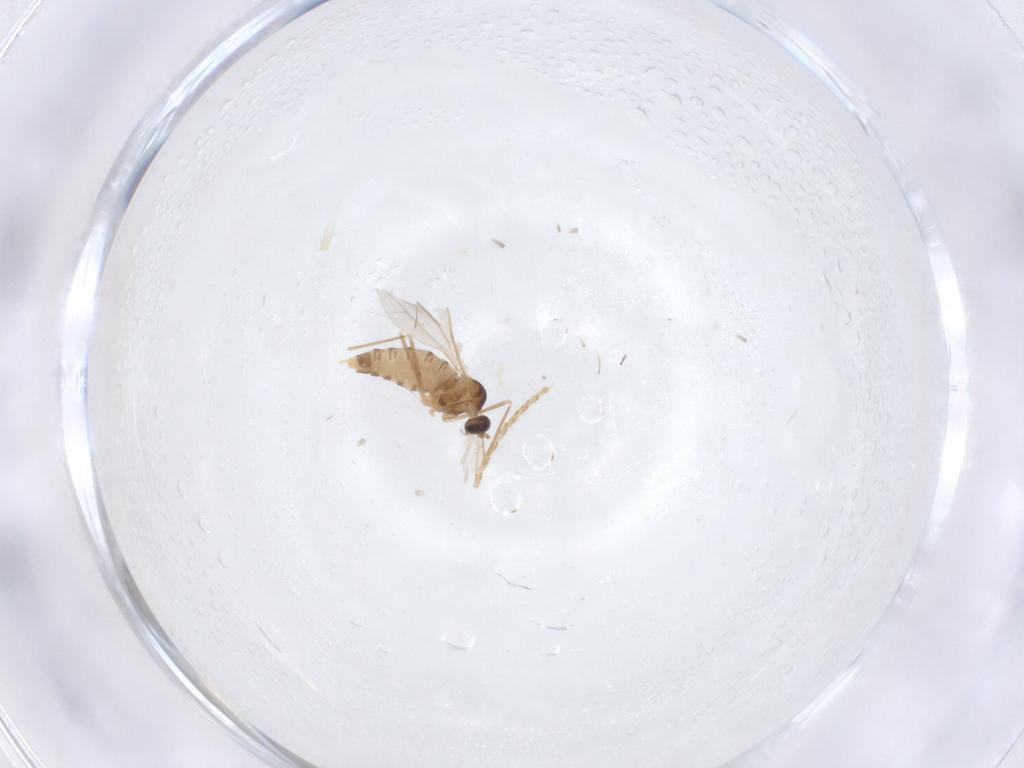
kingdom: Animalia
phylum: Arthropoda
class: Insecta
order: Diptera
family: Cecidomyiidae
